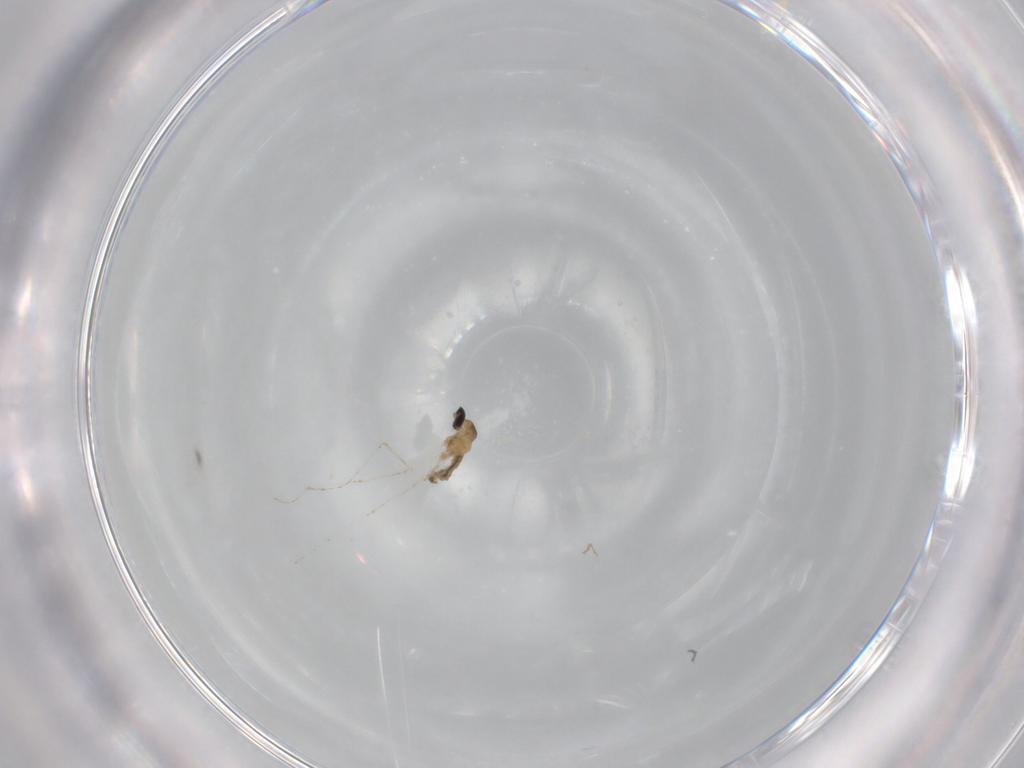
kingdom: Animalia
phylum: Arthropoda
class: Insecta
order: Diptera
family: Cecidomyiidae
